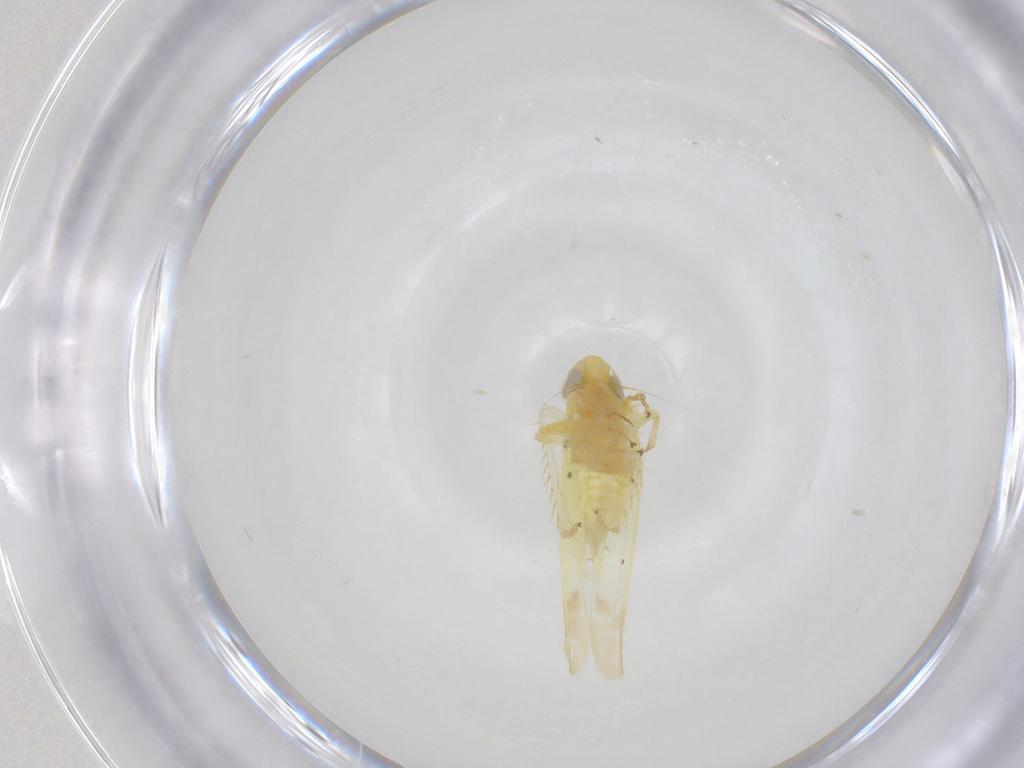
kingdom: Animalia
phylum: Arthropoda
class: Insecta
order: Hemiptera
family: Cicadellidae
